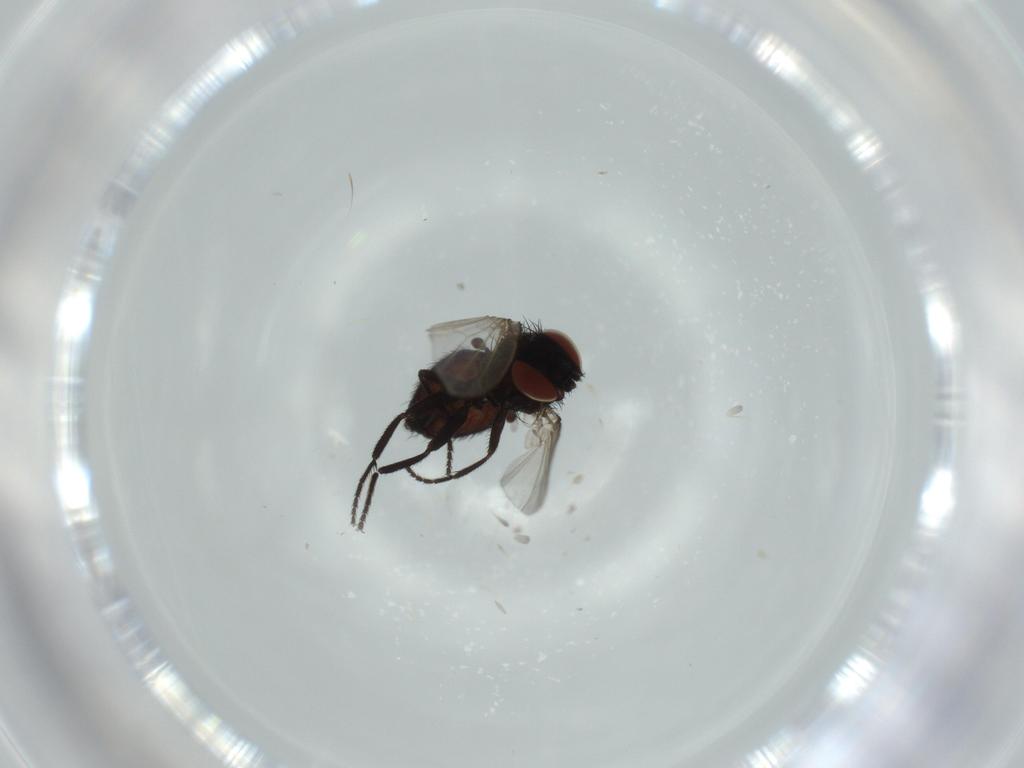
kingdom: Animalia
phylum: Arthropoda
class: Insecta
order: Diptera
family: Milichiidae
